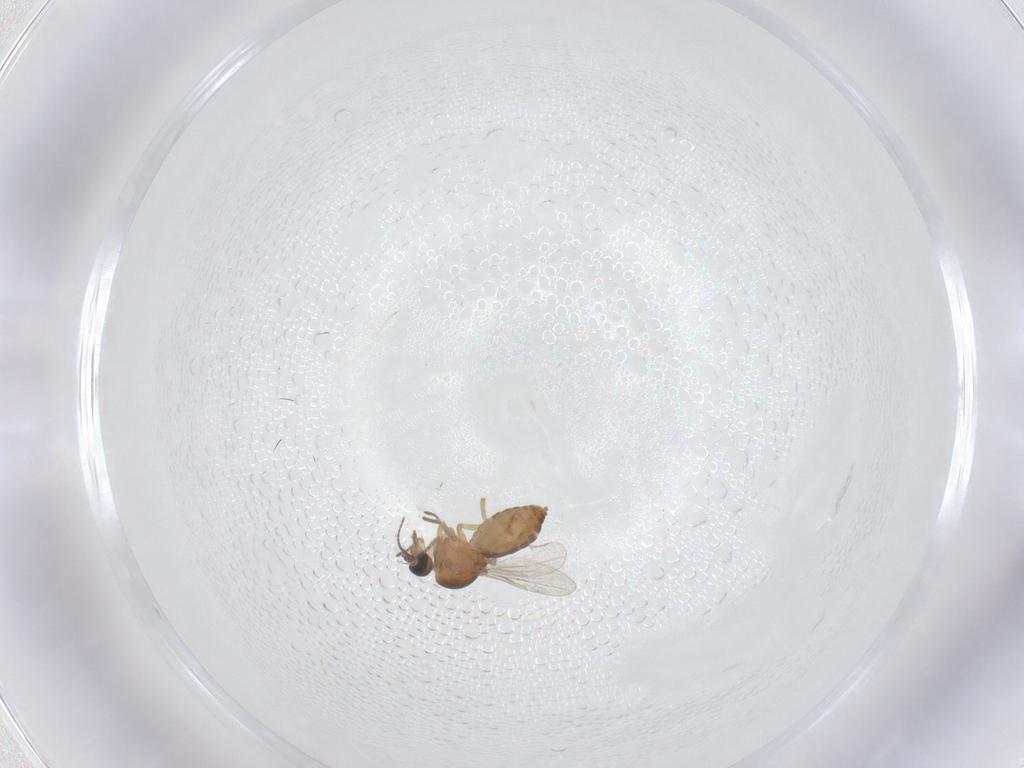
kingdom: Animalia
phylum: Arthropoda
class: Insecta
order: Diptera
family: Ceratopogonidae
